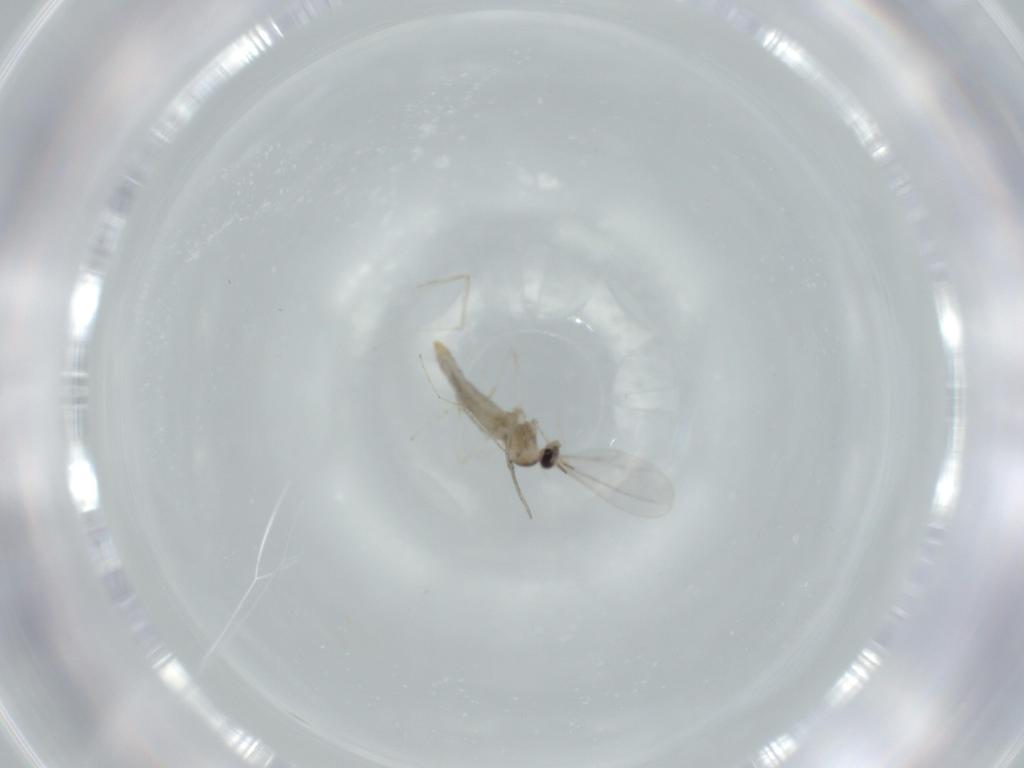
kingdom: Animalia
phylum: Arthropoda
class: Insecta
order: Diptera
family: Cecidomyiidae
